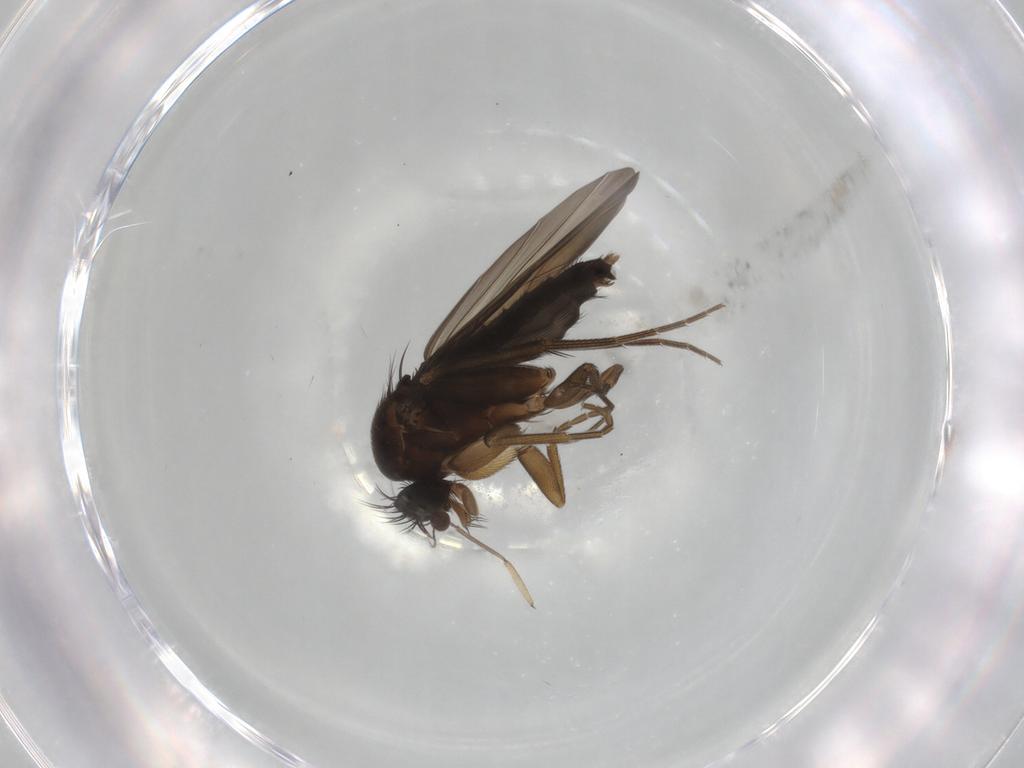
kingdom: Animalia
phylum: Arthropoda
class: Insecta
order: Diptera
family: Phoridae
